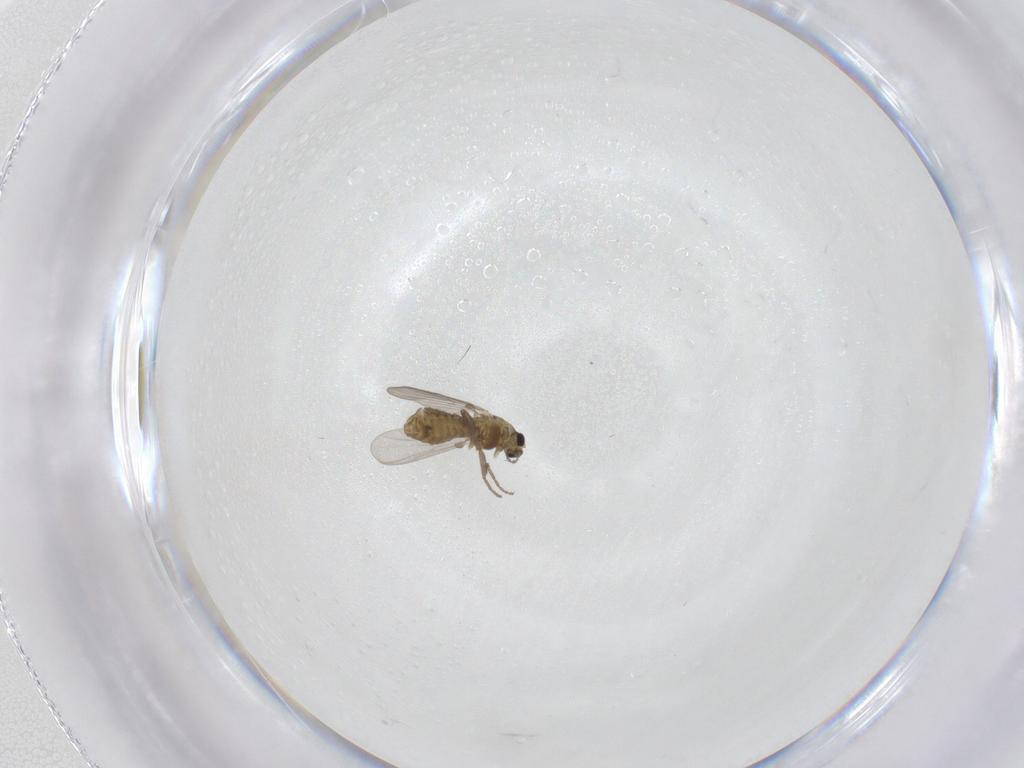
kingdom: Animalia
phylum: Arthropoda
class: Insecta
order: Diptera
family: Chironomidae
